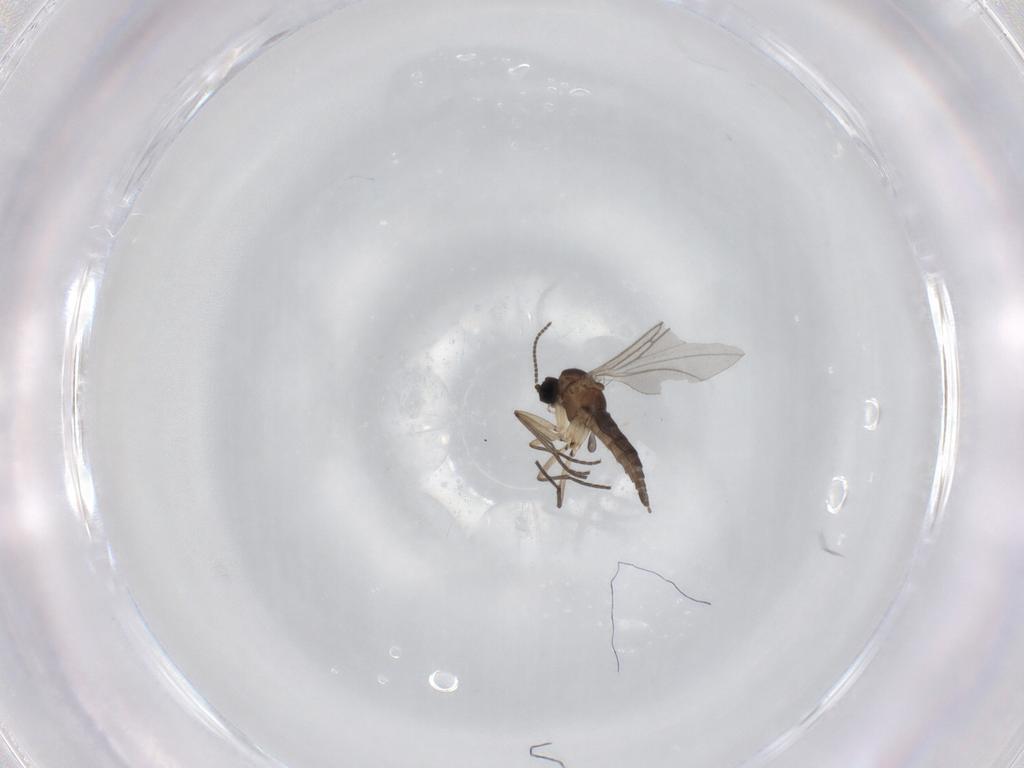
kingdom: Animalia
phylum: Arthropoda
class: Insecta
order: Diptera
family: Sciaridae
